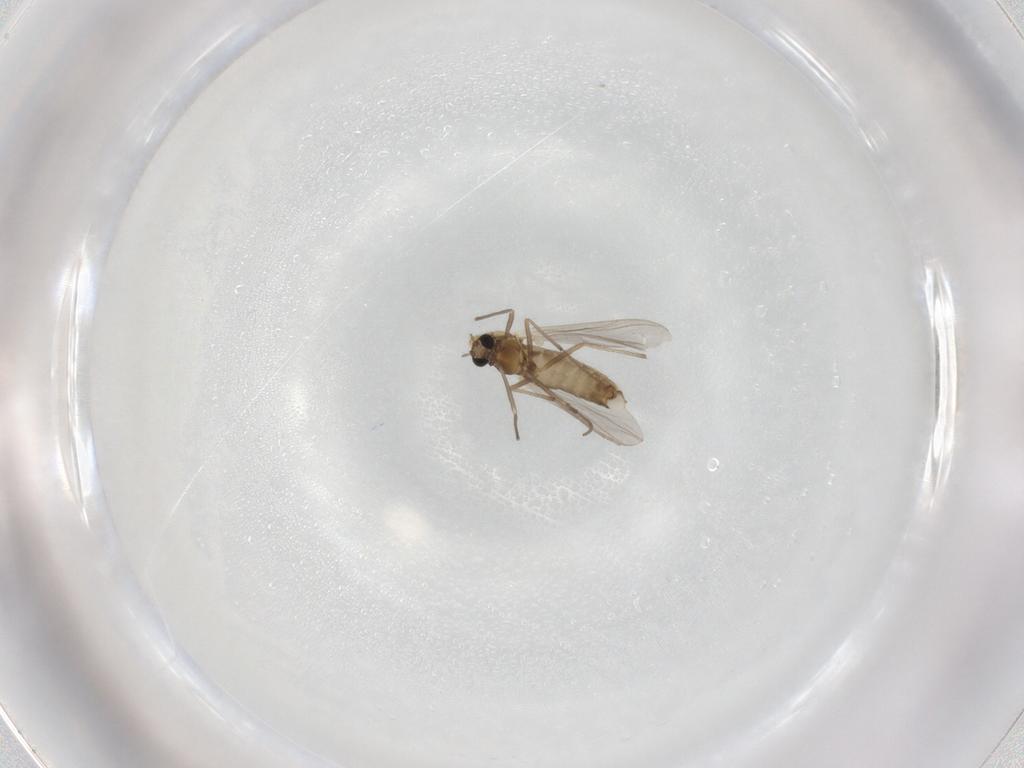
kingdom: Animalia
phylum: Arthropoda
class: Insecta
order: Diptera
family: Chironomidae
